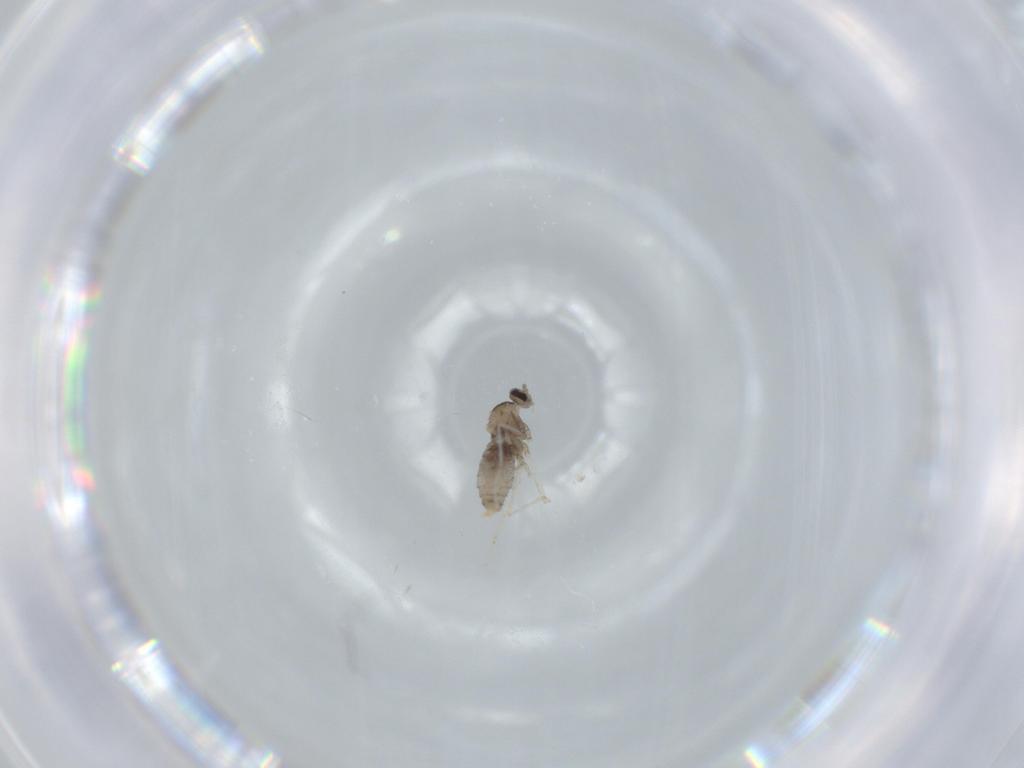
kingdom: Animalia
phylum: Arthropoda
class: Insecta
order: Diptera
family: Cecidomyiidae
